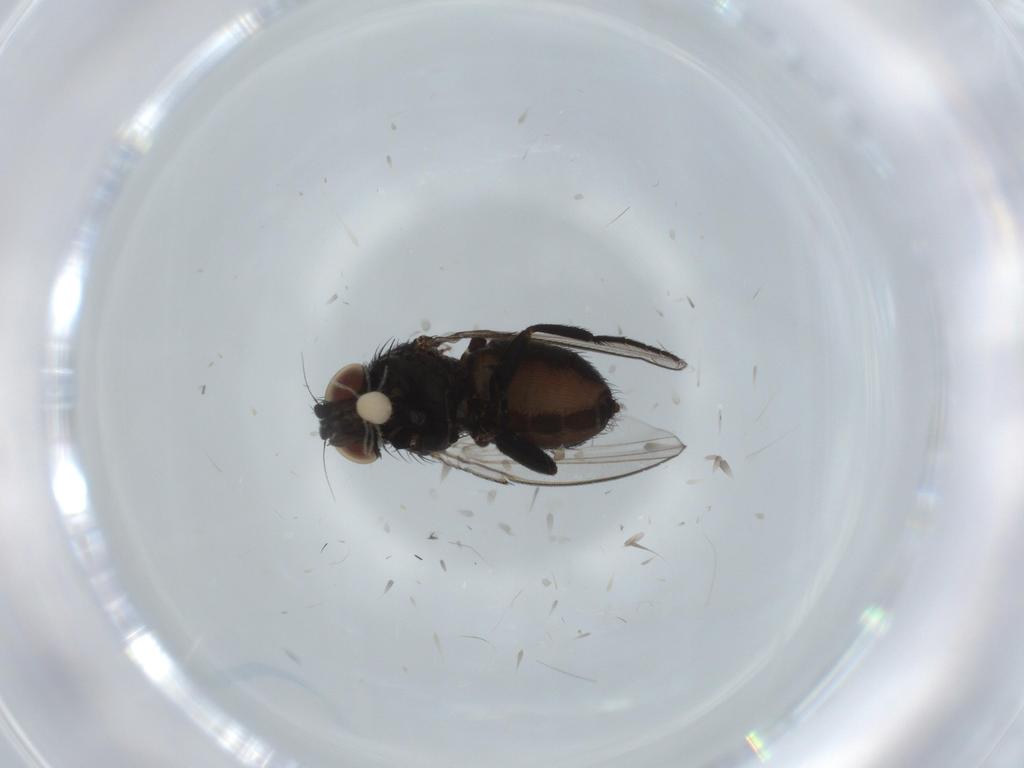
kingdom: Animalia
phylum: Arthropoda
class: Insecta
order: Diptera
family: Milichiidae
